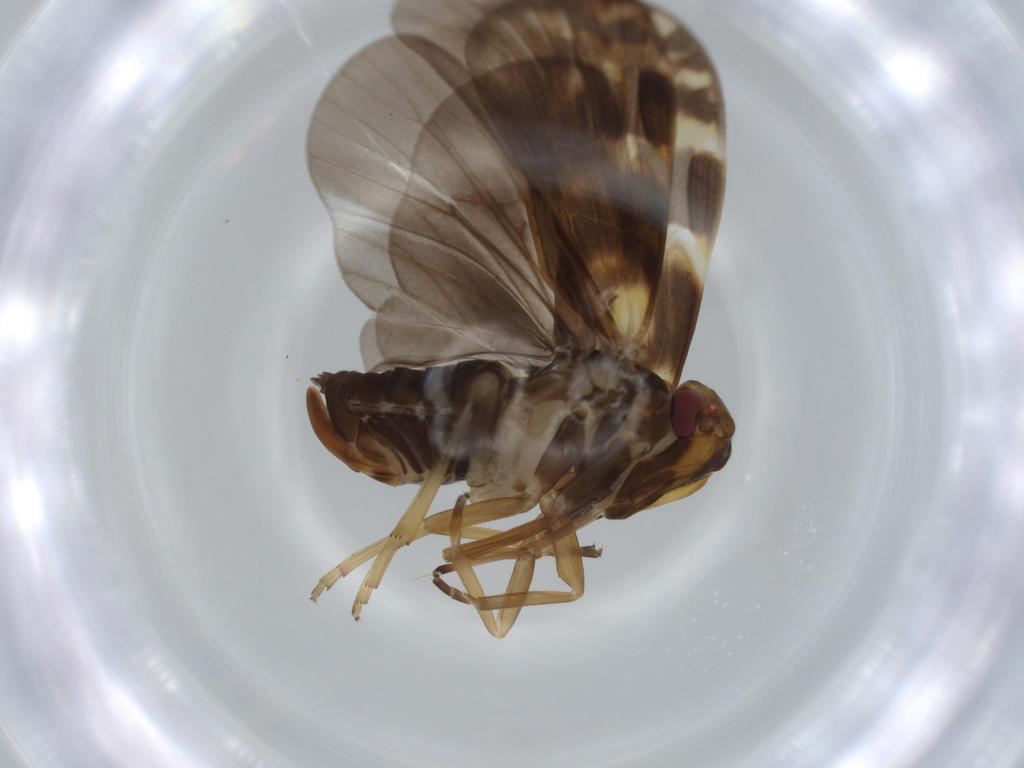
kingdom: Animalia
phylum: Arthropoda
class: Insecta
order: Hemiptera
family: Cixiidae
